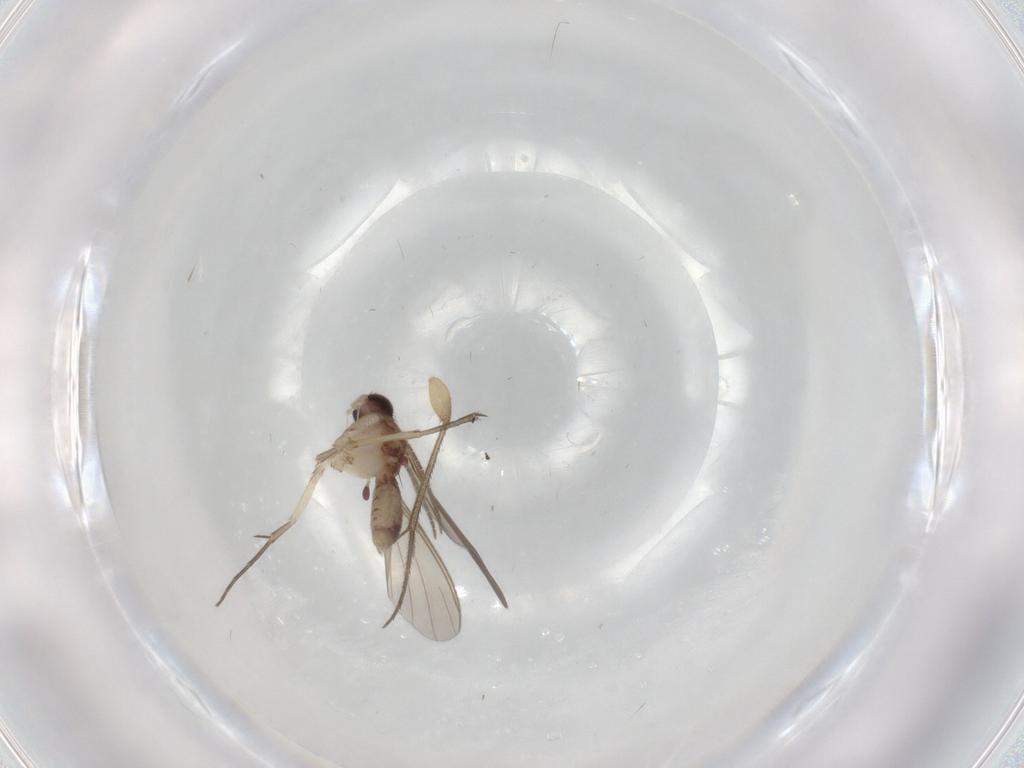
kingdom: Animalia
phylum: Arthropoda
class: Insecta
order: Diptera
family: Mycetophilidae
